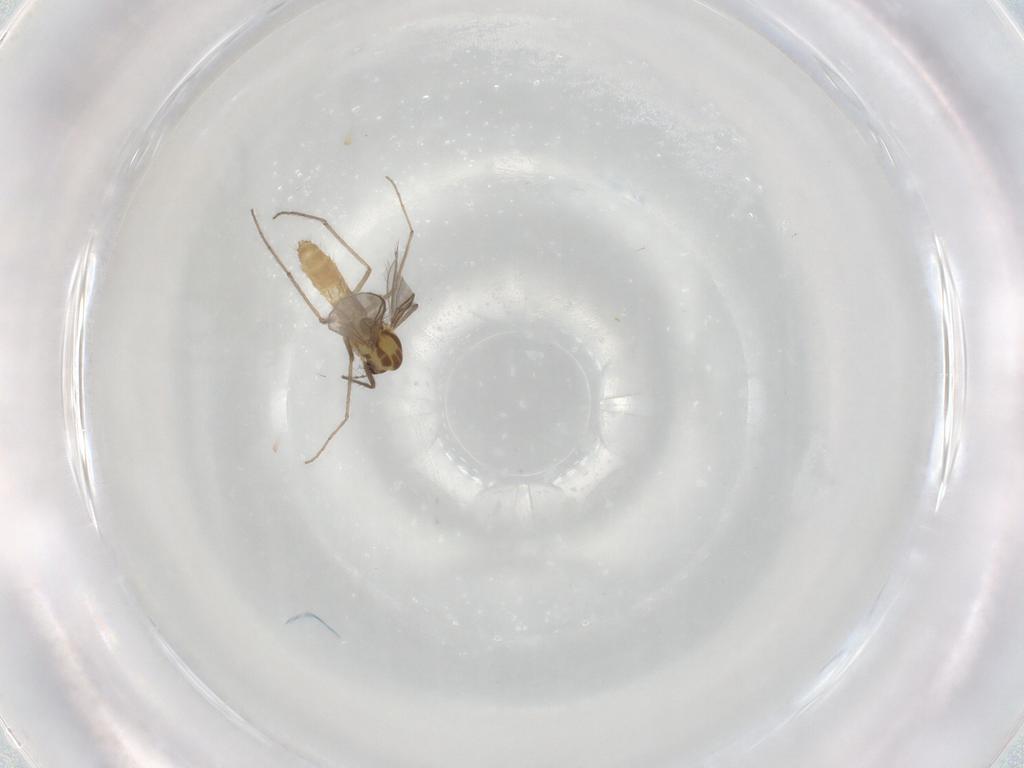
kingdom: Animalia
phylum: Arthropoda
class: Insecta
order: Diptera
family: Chironomidae
